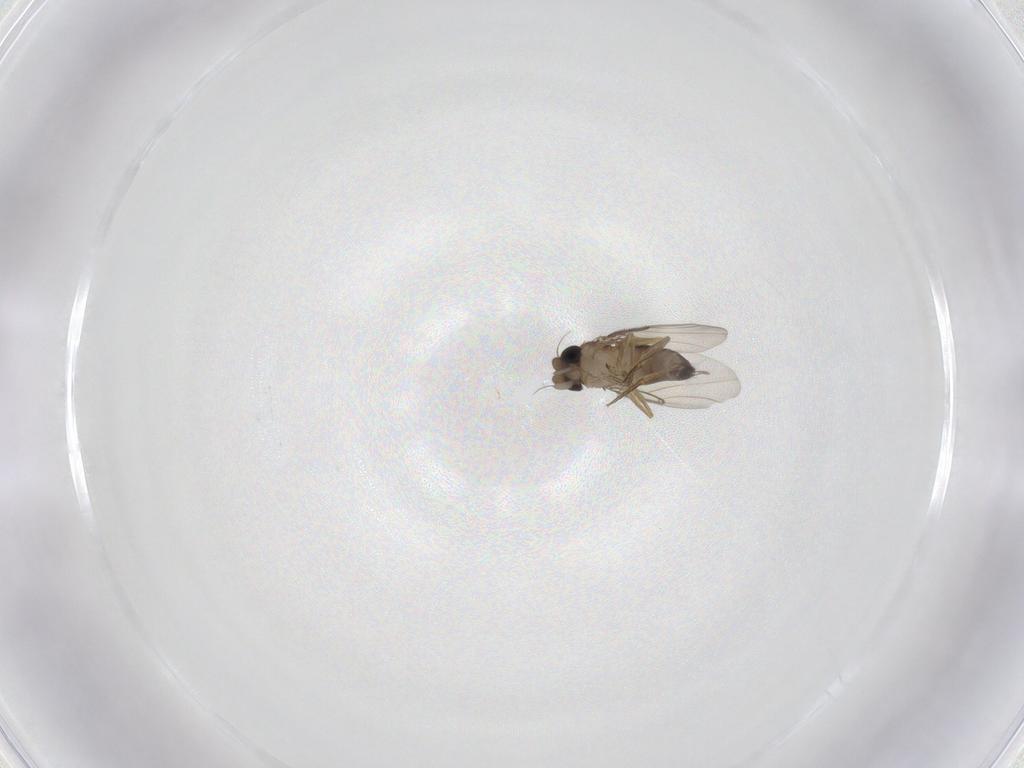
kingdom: Animalia
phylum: Arthropoda
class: Insecta
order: Diptera
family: Phoridae
